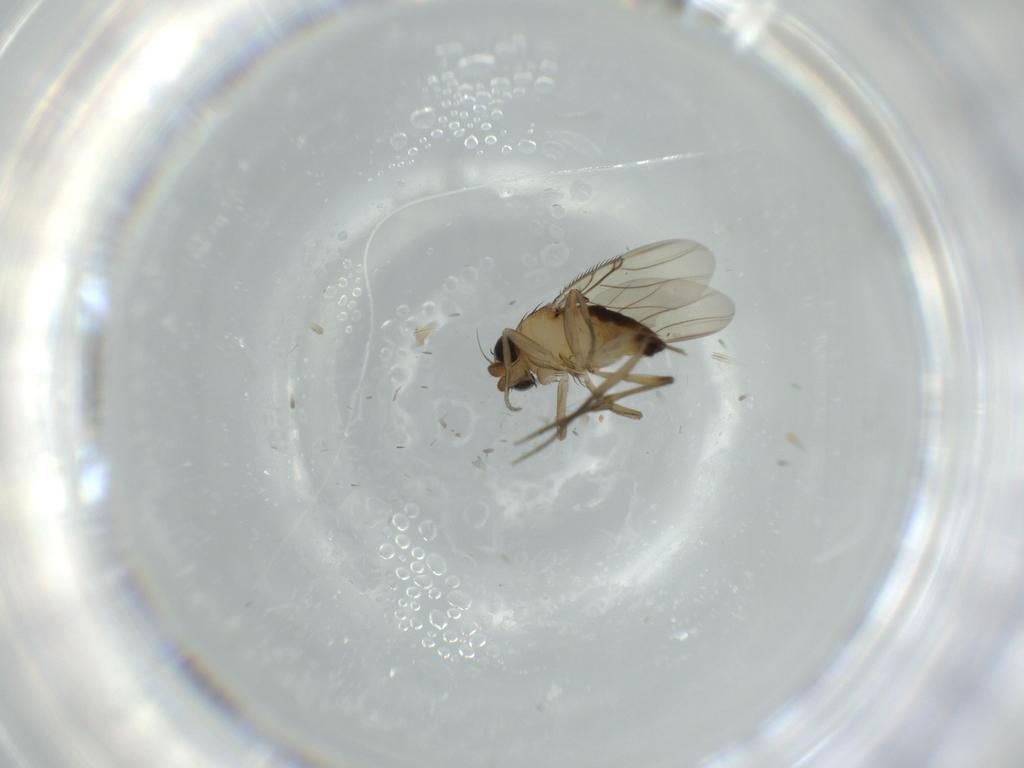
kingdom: Animalia
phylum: Arthropoda
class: Insecta
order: Diptera
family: Phoridae
